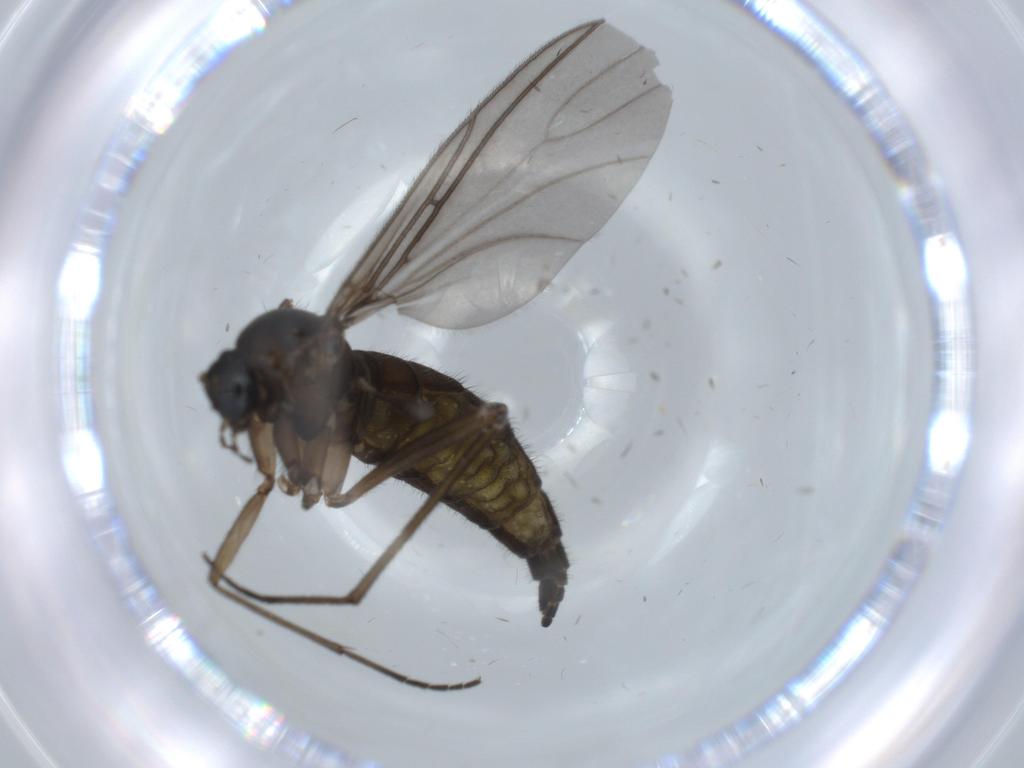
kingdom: Animalia
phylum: Arthropoda
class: Insecta
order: Diptera
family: Sciaridae
